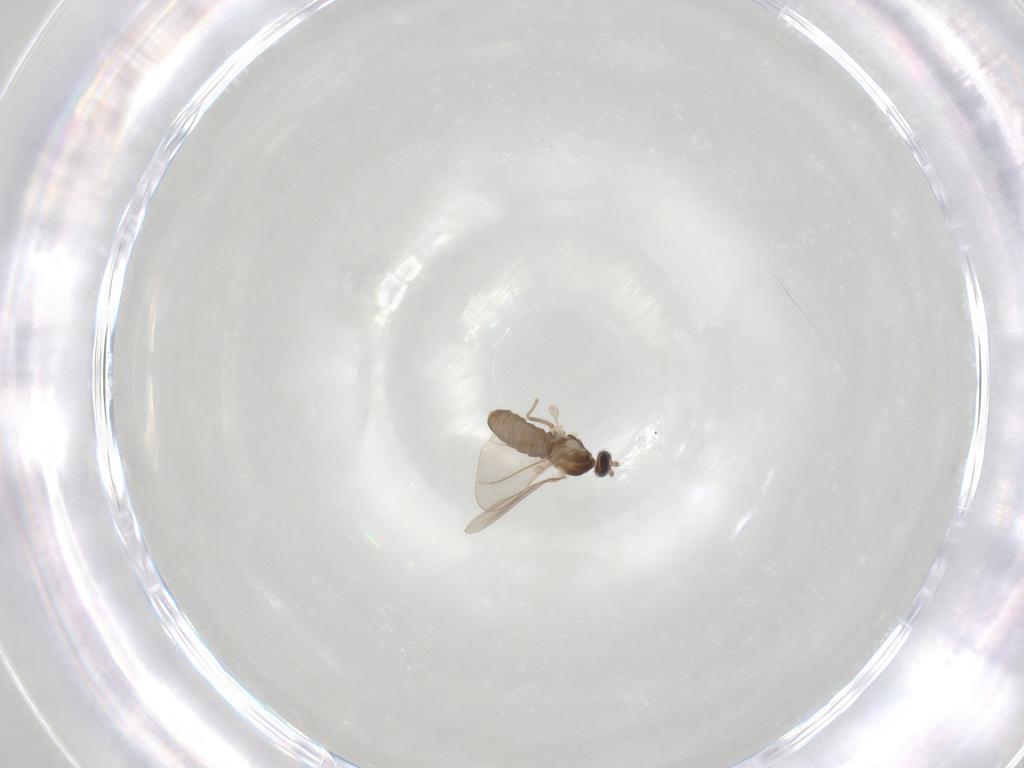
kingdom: Animalia
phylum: Arthropoda
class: Insecta
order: Diptera
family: Cecidomyiidae
